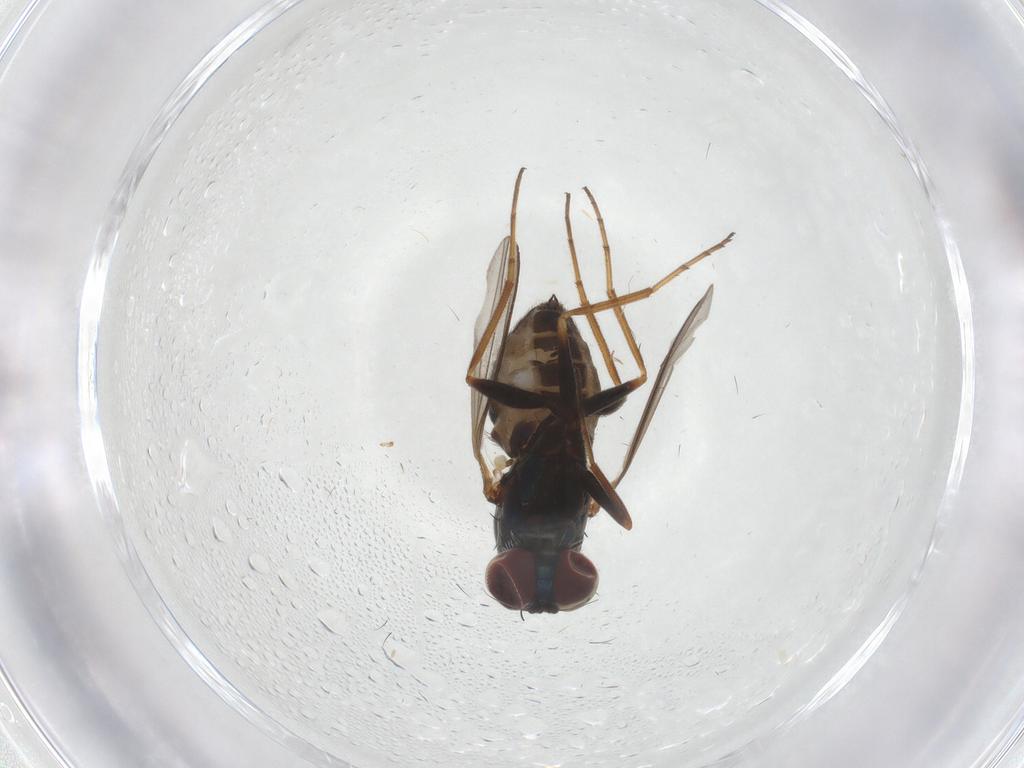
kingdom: Animalia
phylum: Arthropoda
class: Insecta
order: Diptera
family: Dolichopodidae
